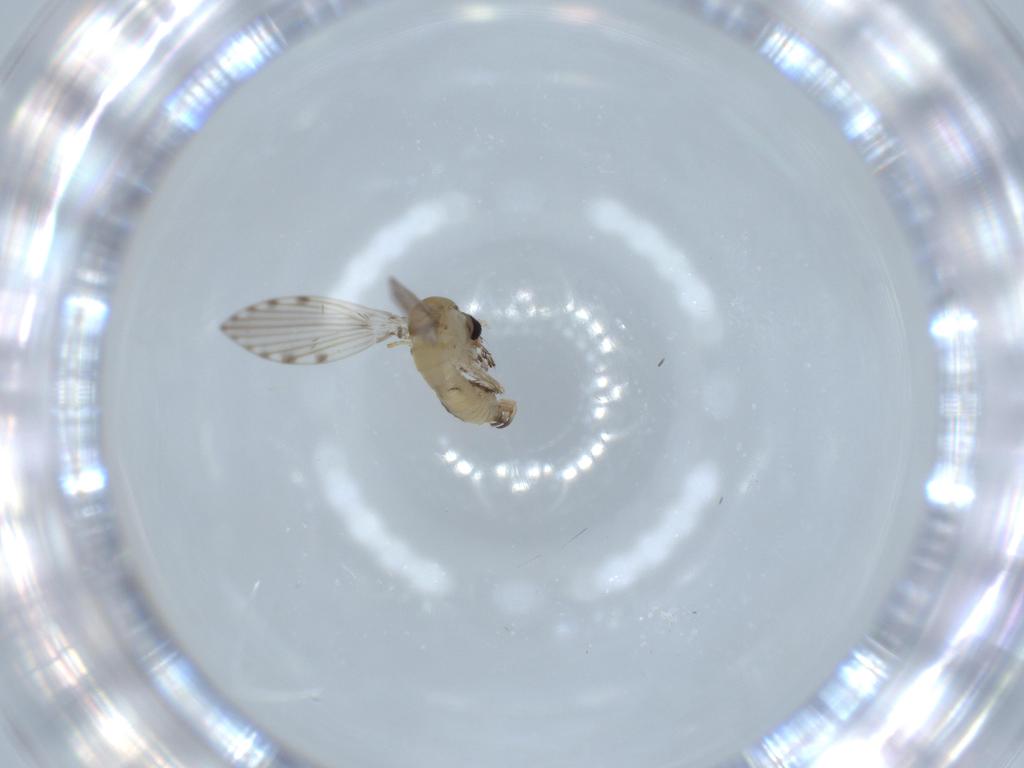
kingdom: Animalia
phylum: Arthropoda
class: Insecta
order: Diptera
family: Psychodidae
